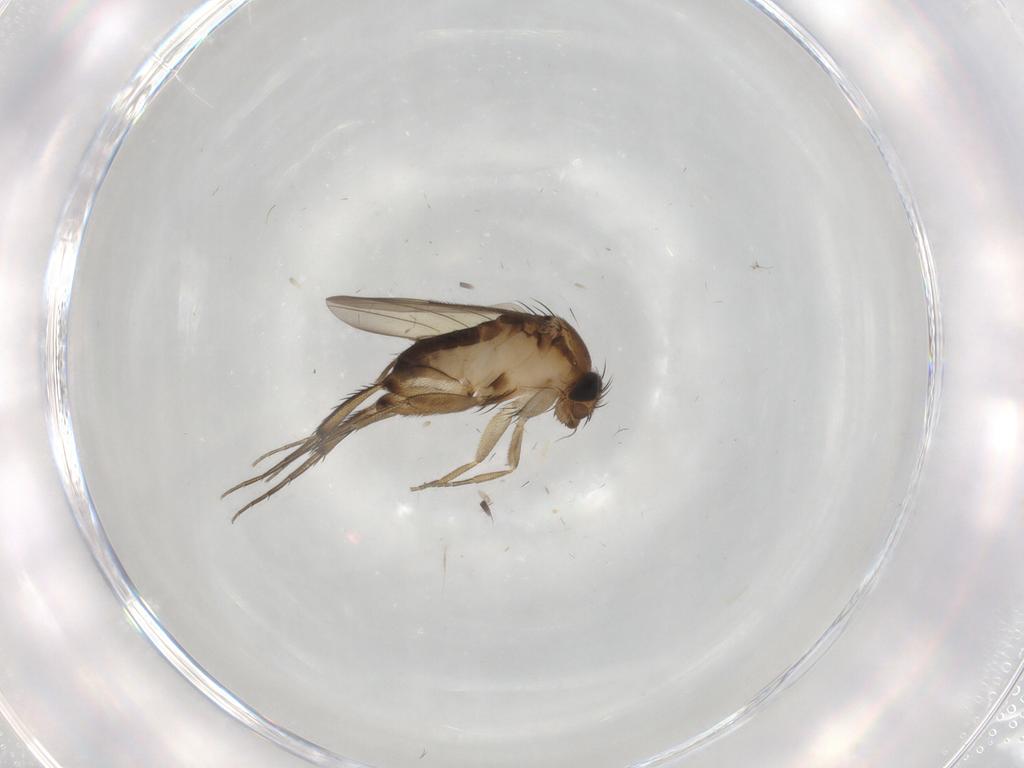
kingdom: Animalia
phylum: Arthropoda
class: Insecta
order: Diptera
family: Phoridae
